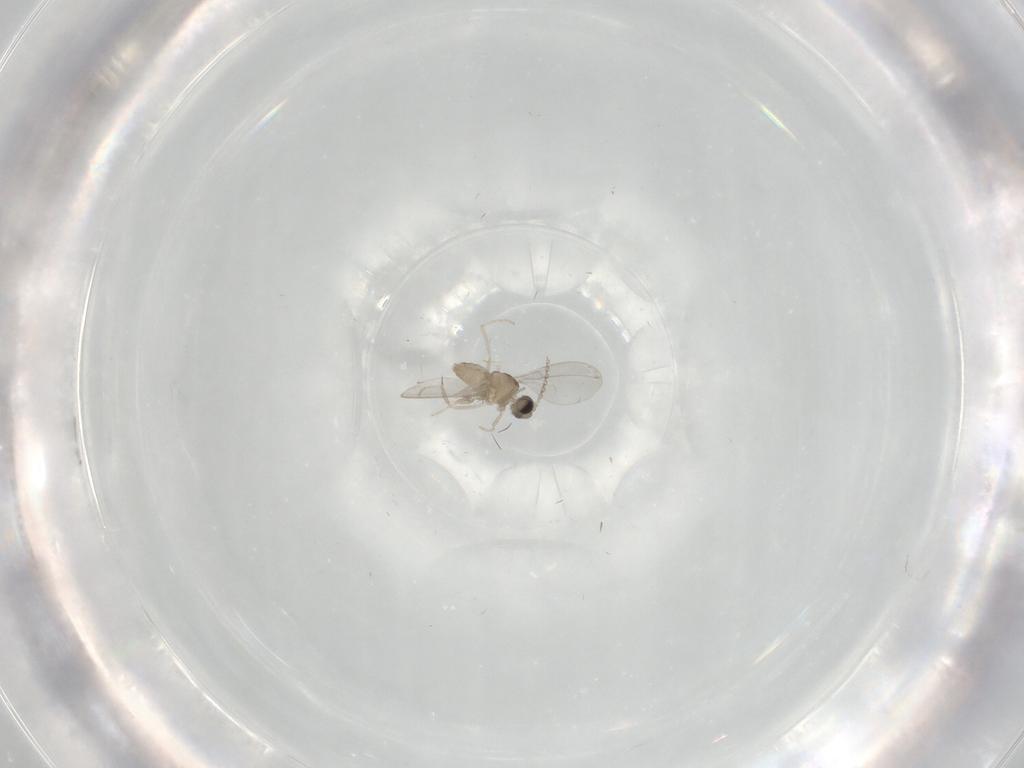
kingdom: Animalia
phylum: Arthropoda
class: Insecta
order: Diptera
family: Cecidomyiidae
